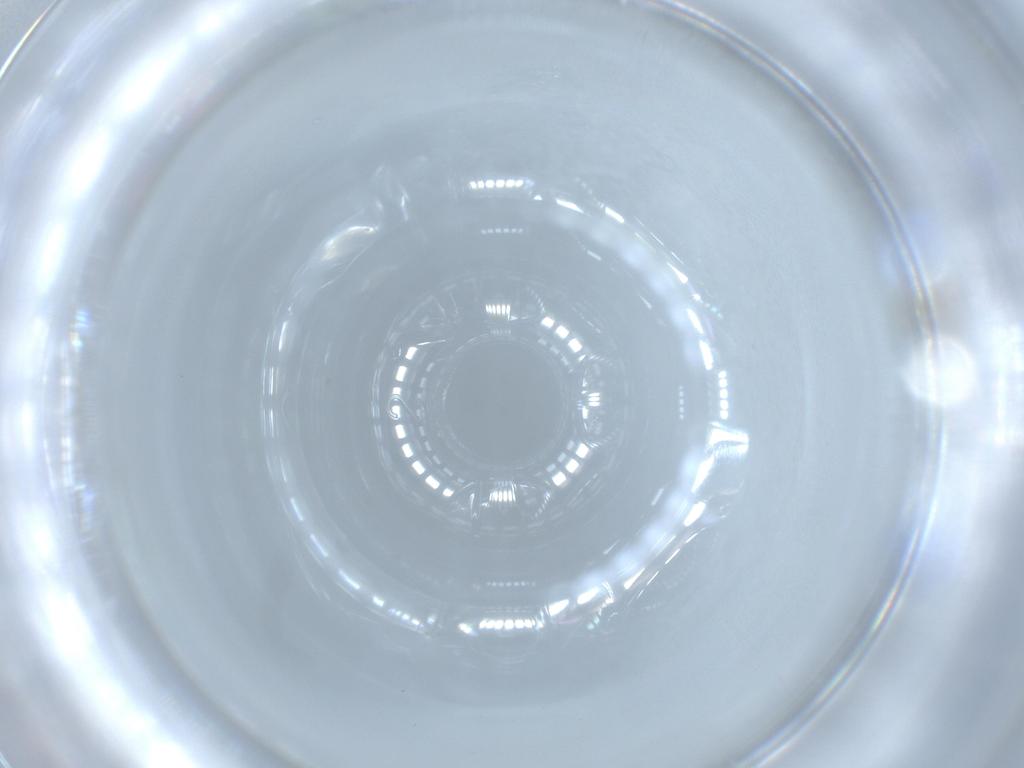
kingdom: Animalia
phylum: Arthropoda
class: Insecta
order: Psocodea
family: Lepidopsocidae
